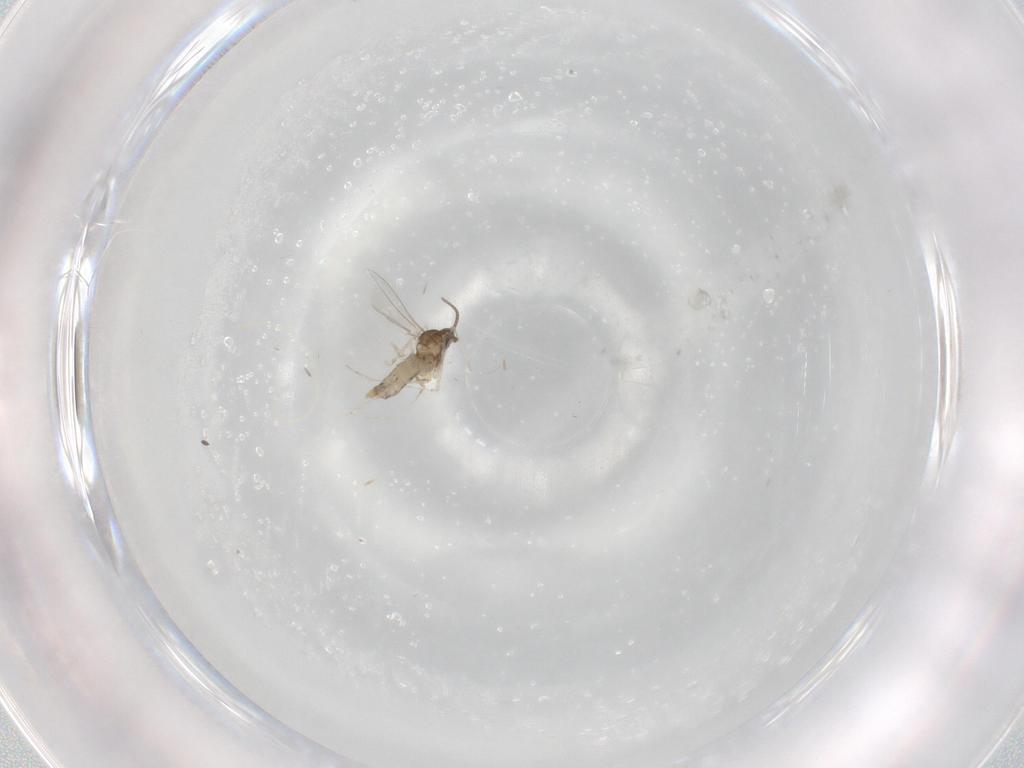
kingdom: Animalia
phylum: Arthropoda
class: Insecta
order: Diptera
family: Cecidomyiidae
